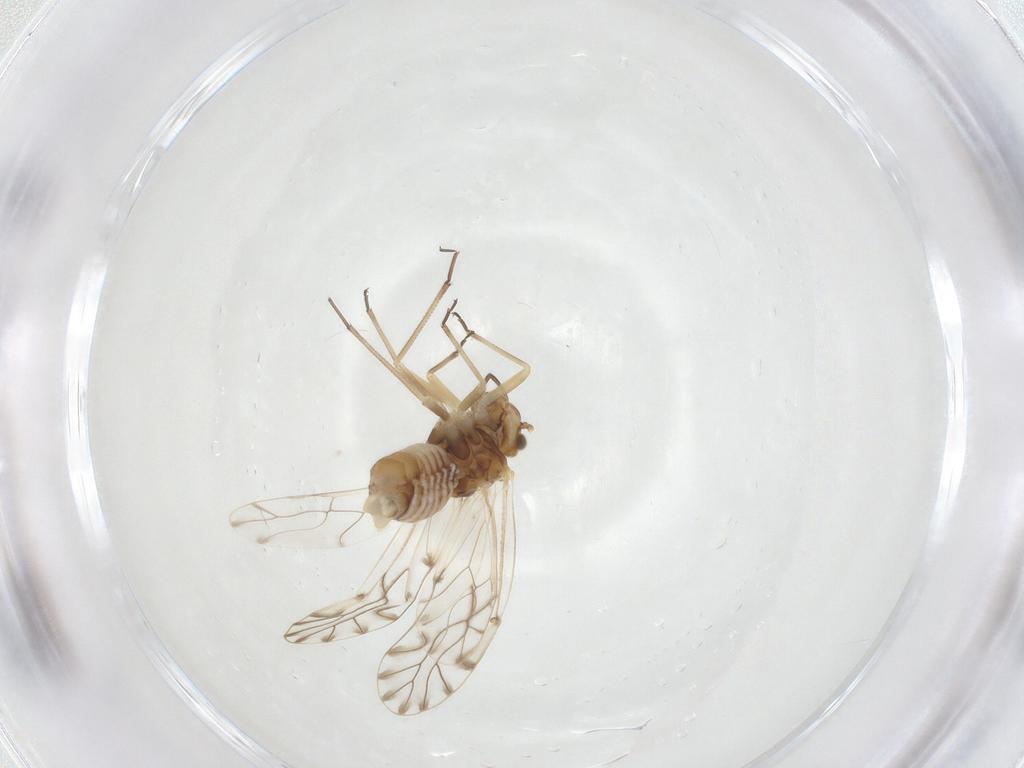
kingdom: Animalia
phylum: Arthropoda
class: Insecta
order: Psocodea
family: Lachesillidae
